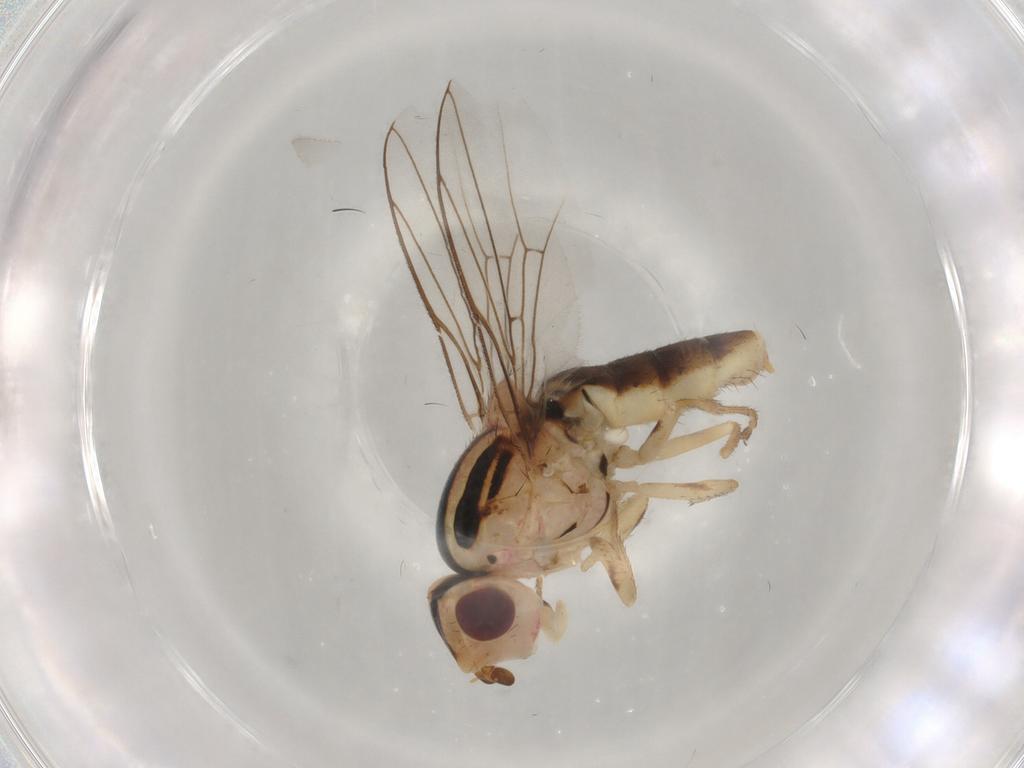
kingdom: Animalia
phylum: Arthropoda
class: Insecta
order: Diptera
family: Chloropidae
